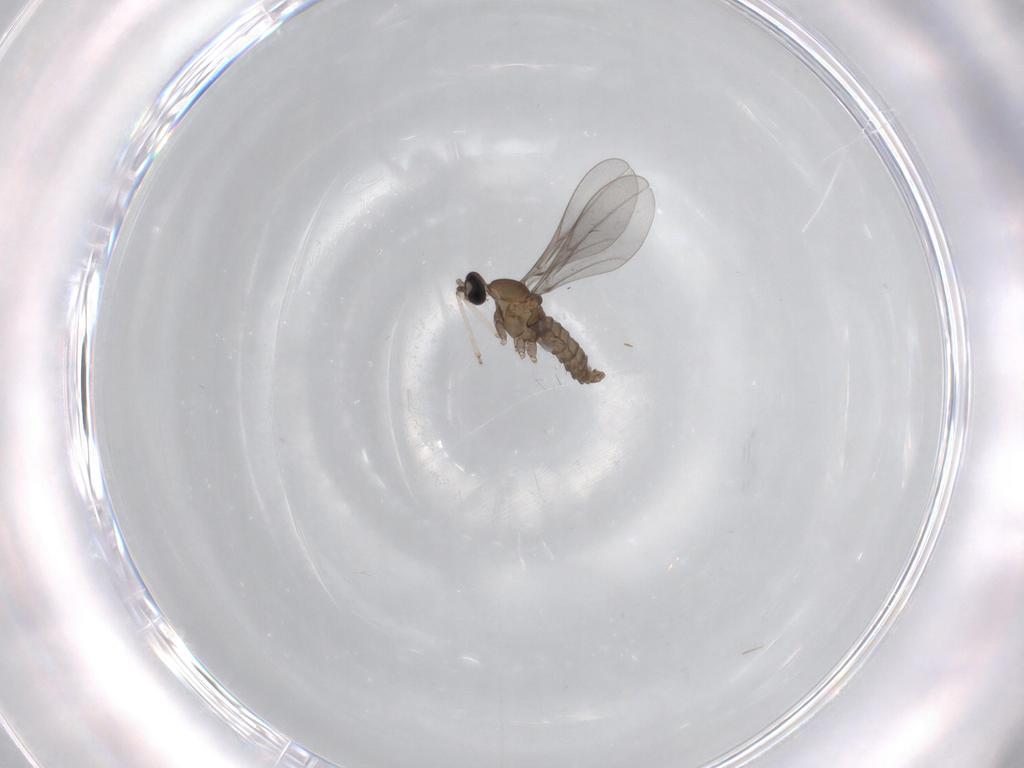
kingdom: Animalia
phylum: Arthropoda
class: Insecta
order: Diptera
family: Cecidomyiidae
